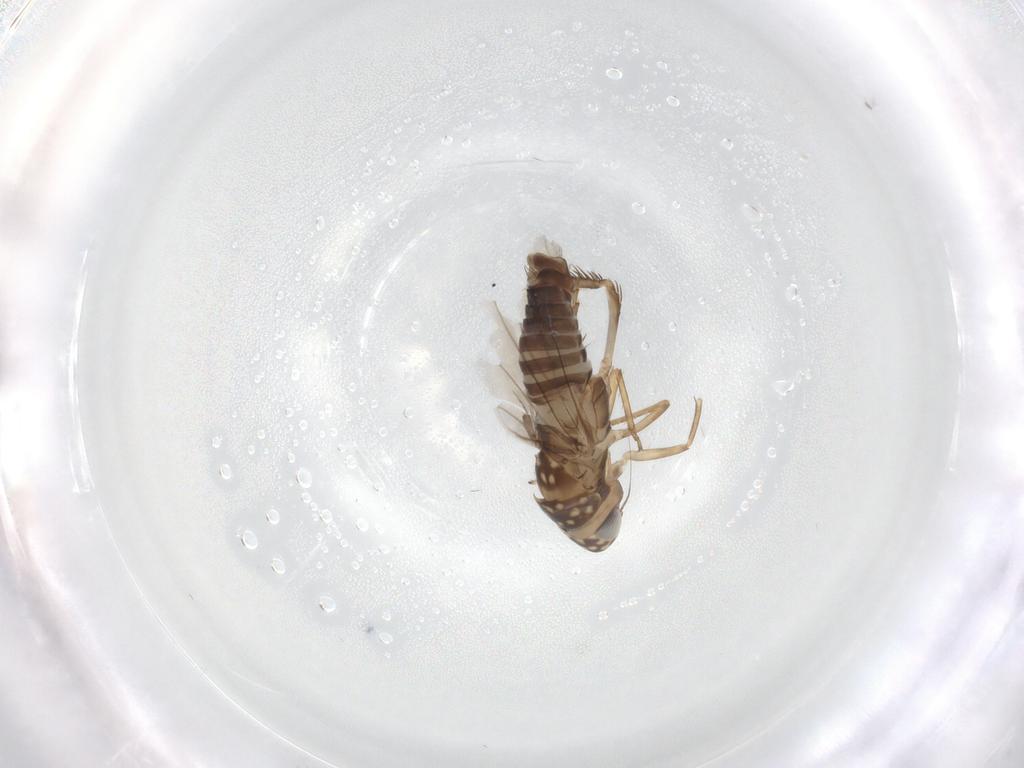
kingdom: Animalia
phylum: Arthropoda
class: Insecta
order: Hemiptera
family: Cicadellidae
